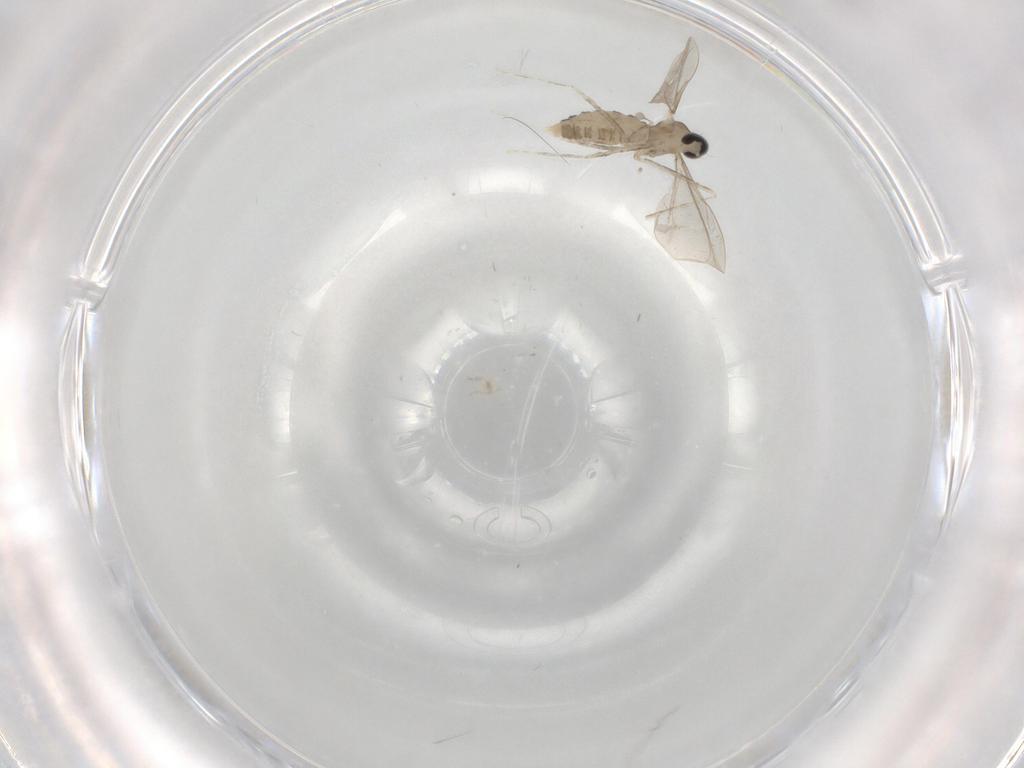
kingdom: Animalia
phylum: Arthropoda
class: Insecta
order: Diptera
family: Cecidomyiidae
